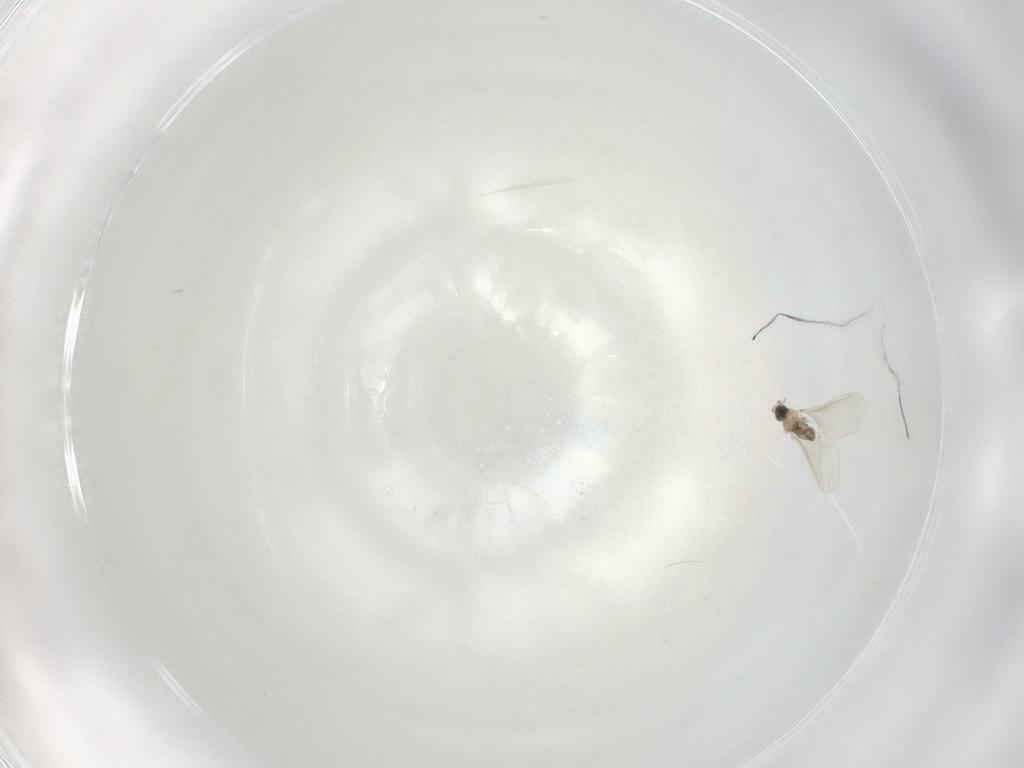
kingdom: Animalia
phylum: Arthropoda
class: Insecta
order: Diptera
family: Cecidomyiidae
